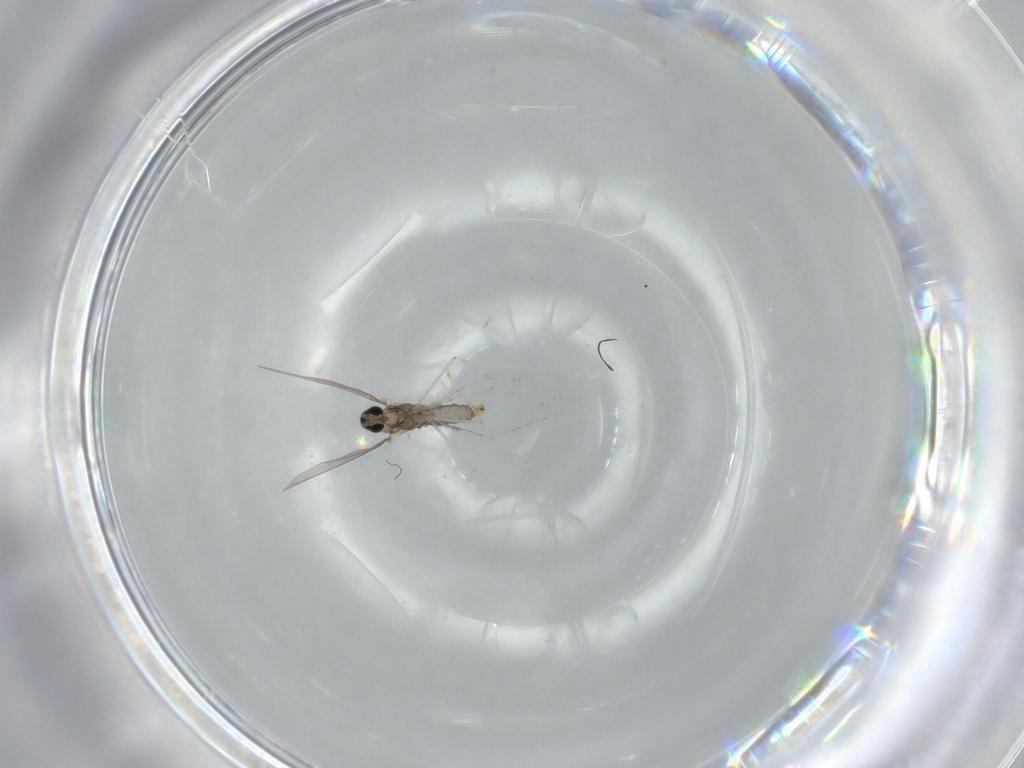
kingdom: Animalia
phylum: Arthropoda
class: Insecta
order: Diptera
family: Cecidomyiidae
